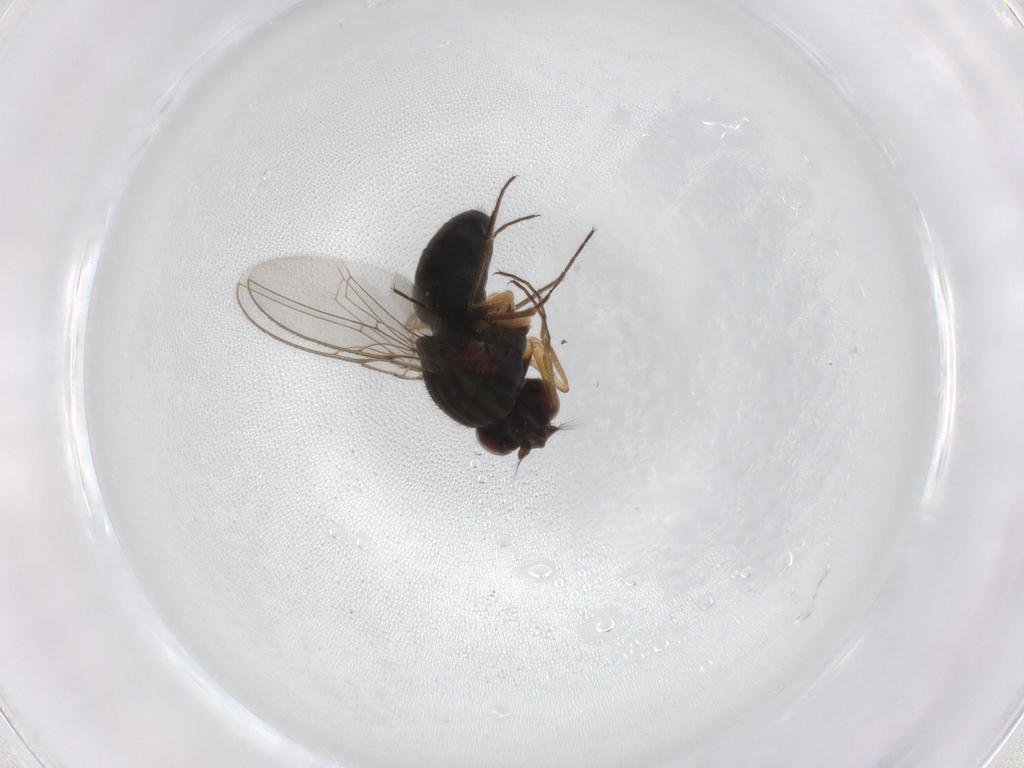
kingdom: Animalia
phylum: Arthropoda
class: Insecta
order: Diptera
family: Ephydridae
